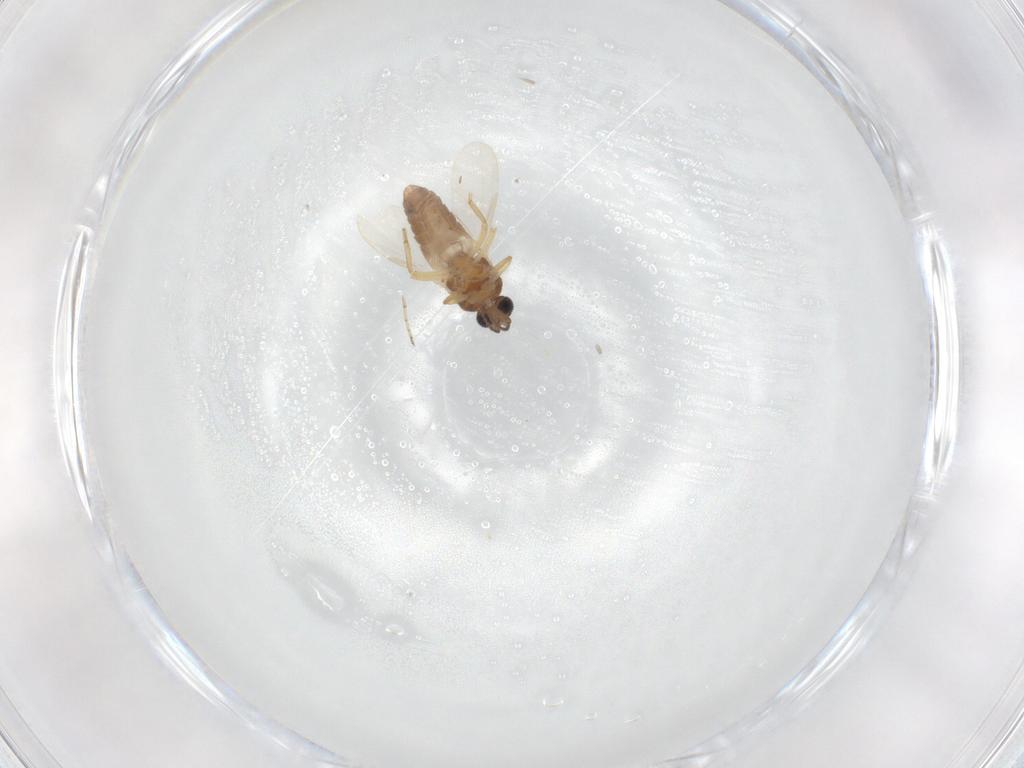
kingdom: Animalia
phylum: Arthropoda
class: Insecta
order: Diptera
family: Ceratopogonidae
